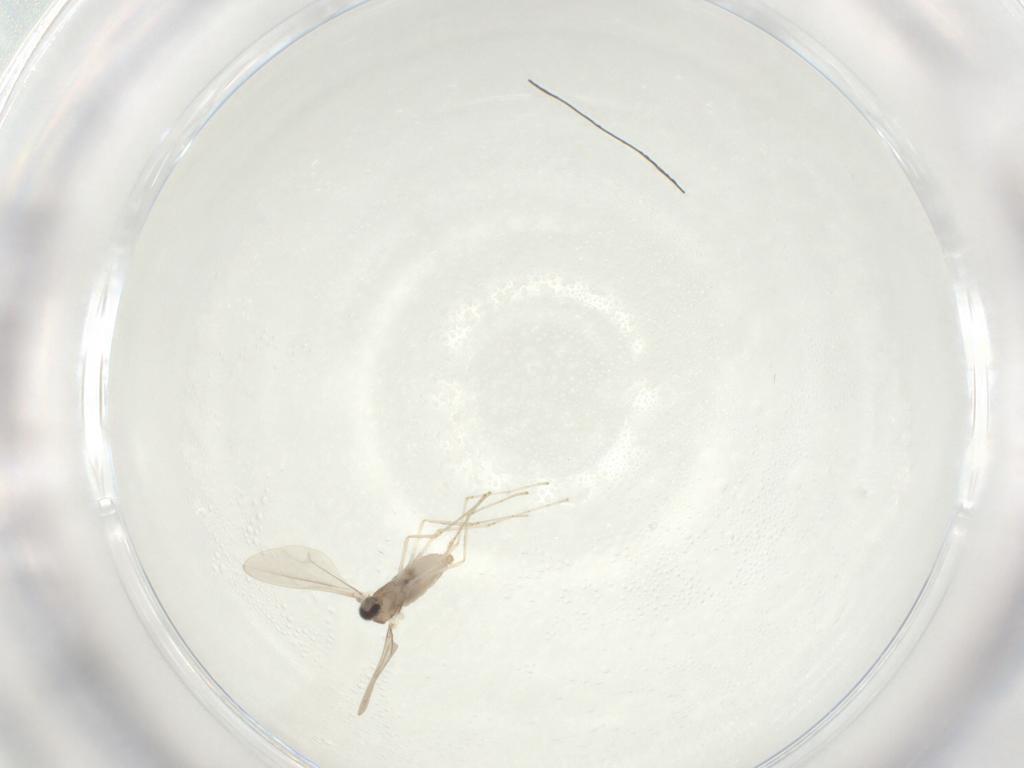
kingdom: Animalia
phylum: Arthropoda
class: Insecta
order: Diptera
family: Cecidomyiidae
